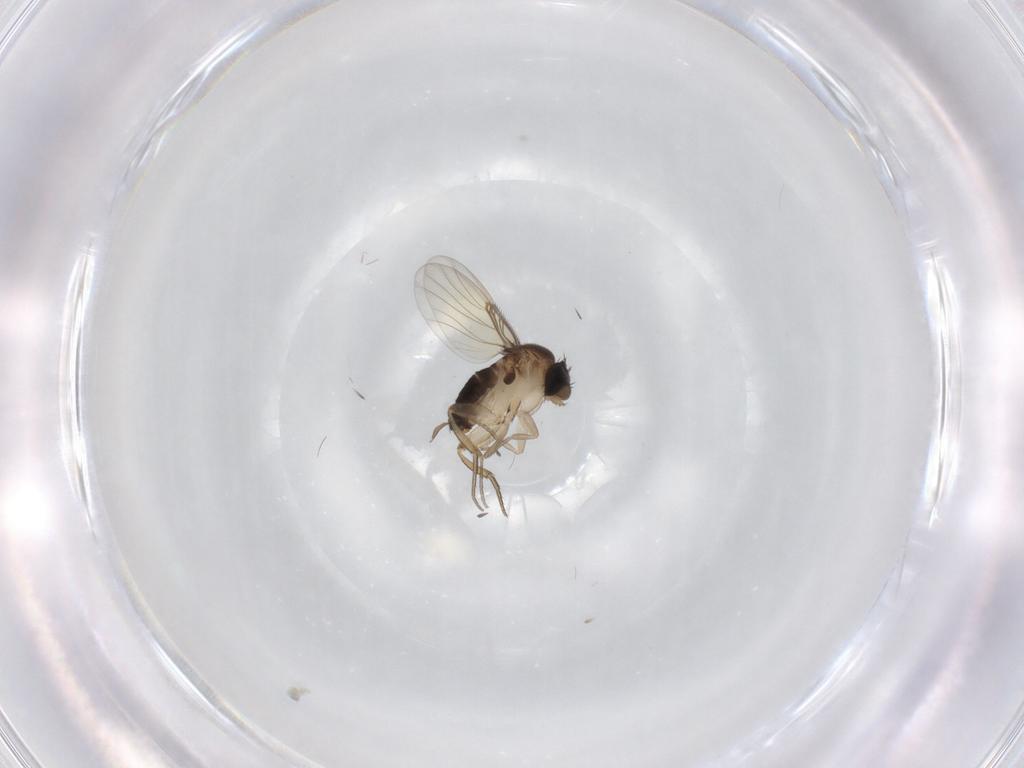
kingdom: Animalia
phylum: Arthropoda
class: Insecta
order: Diptera
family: Phoridae
